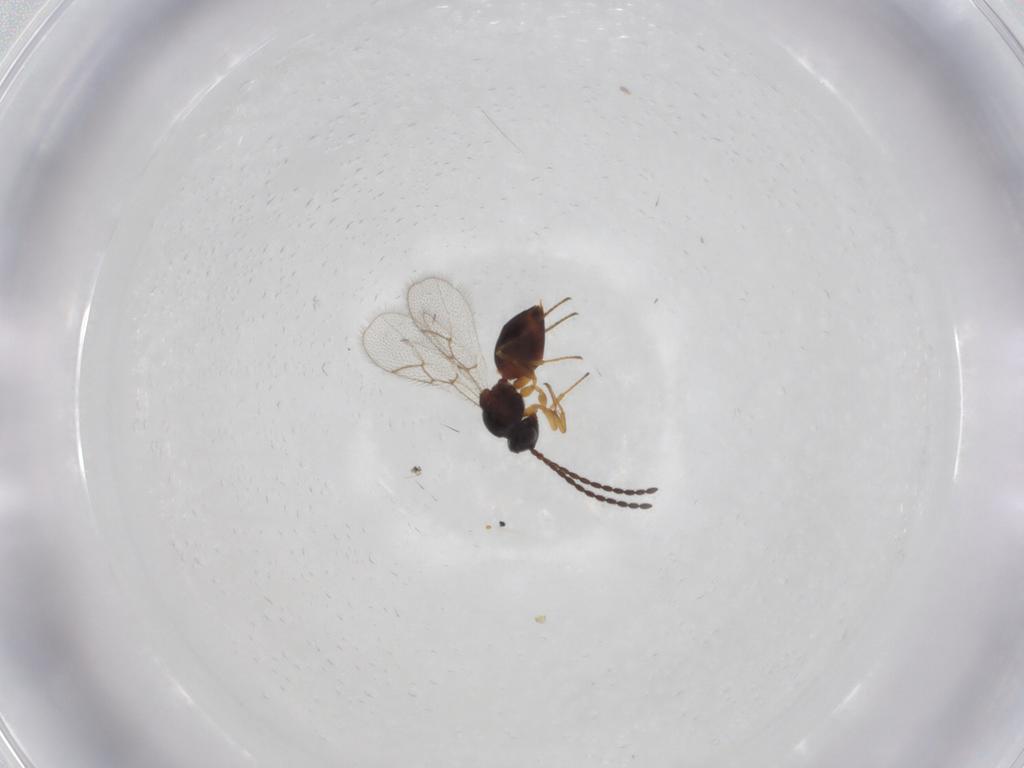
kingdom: Animalia
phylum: Arthropoda
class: Insecta
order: Hymenoptera
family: Figitidae
